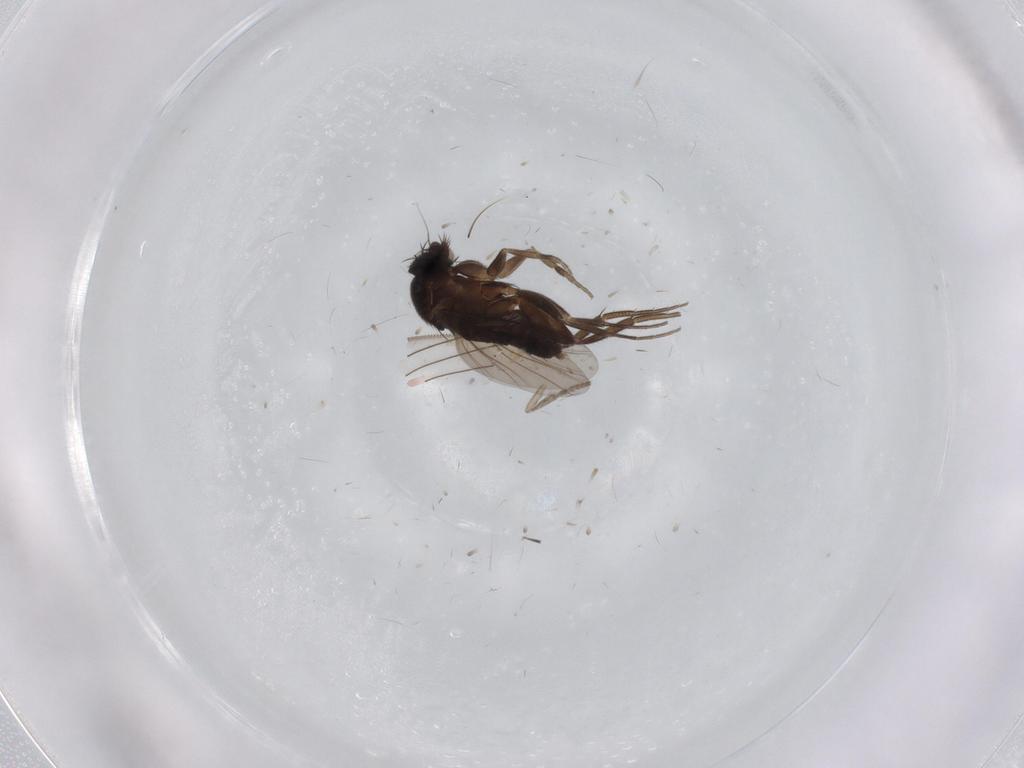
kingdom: Animalia
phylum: Arthropoda
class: Insecta
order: Diptera
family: Psychodidae
